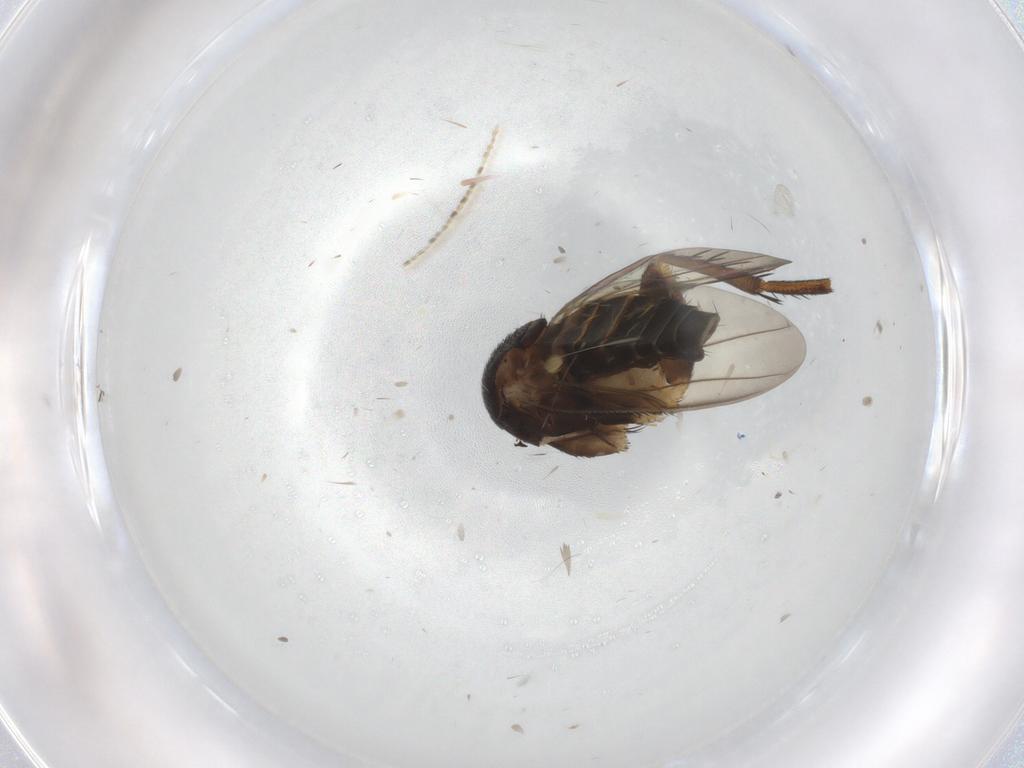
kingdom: Animalia
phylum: Arthropoda
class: Insecta
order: Diptera
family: Phoridae
